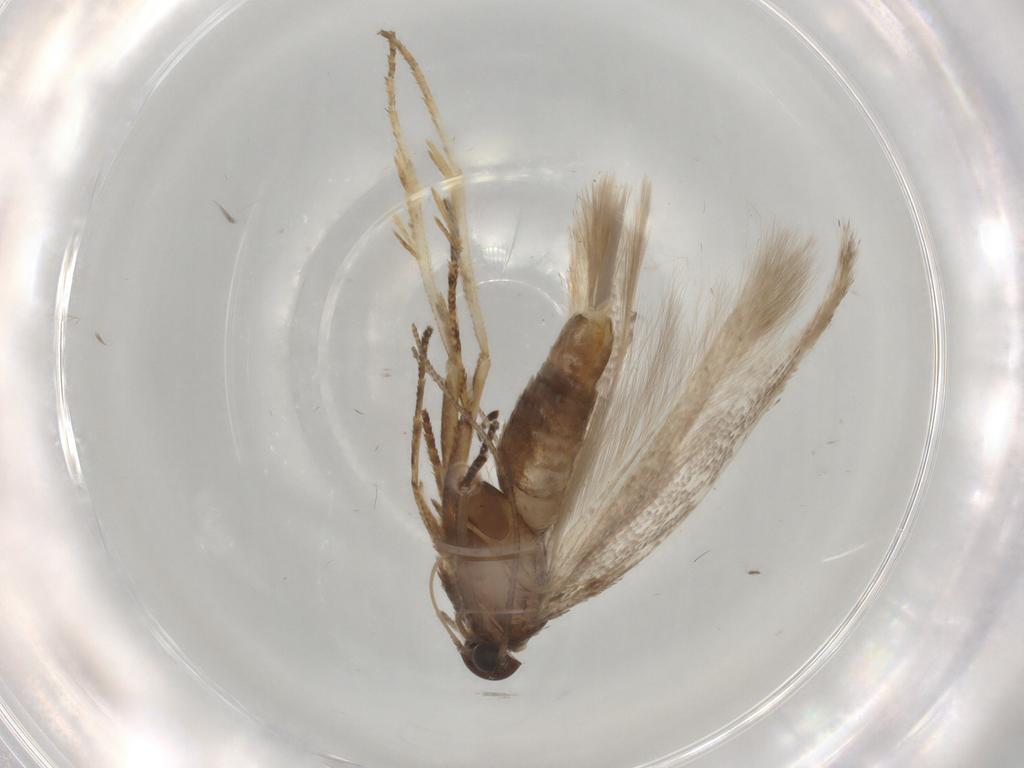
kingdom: Animalia
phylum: Arthropoda
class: Insecta
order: Lepidoptera
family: Gelechiidae
